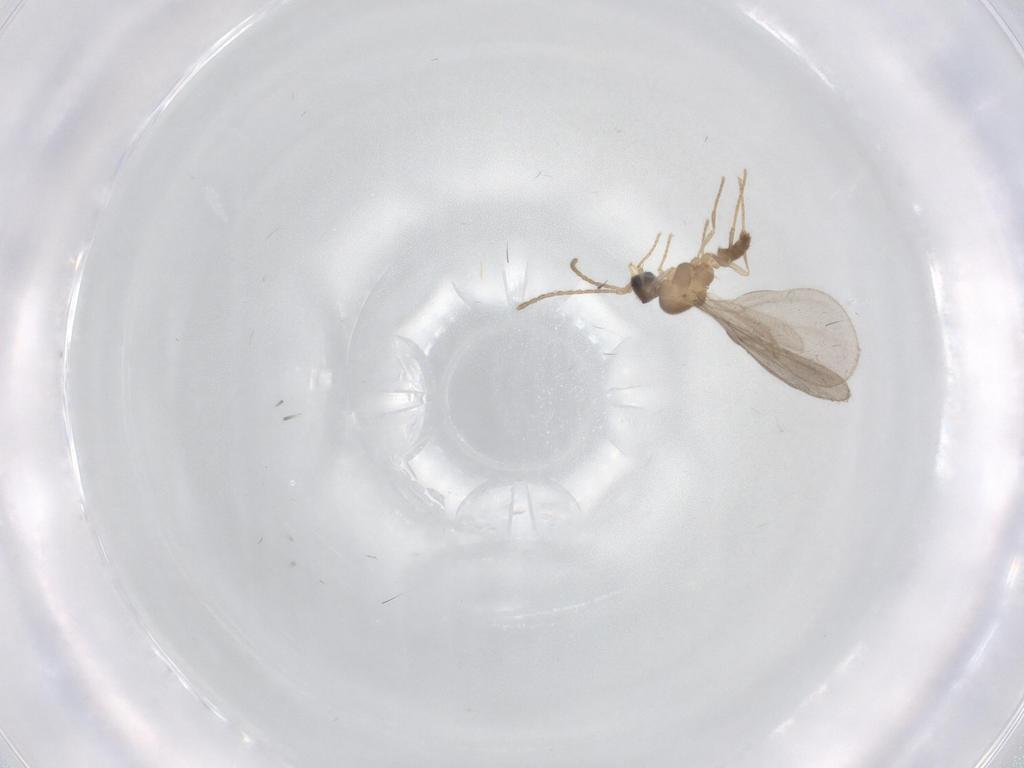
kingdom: Animalia
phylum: Arthropoda
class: Insecta
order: Diptera
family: Hybotidae
